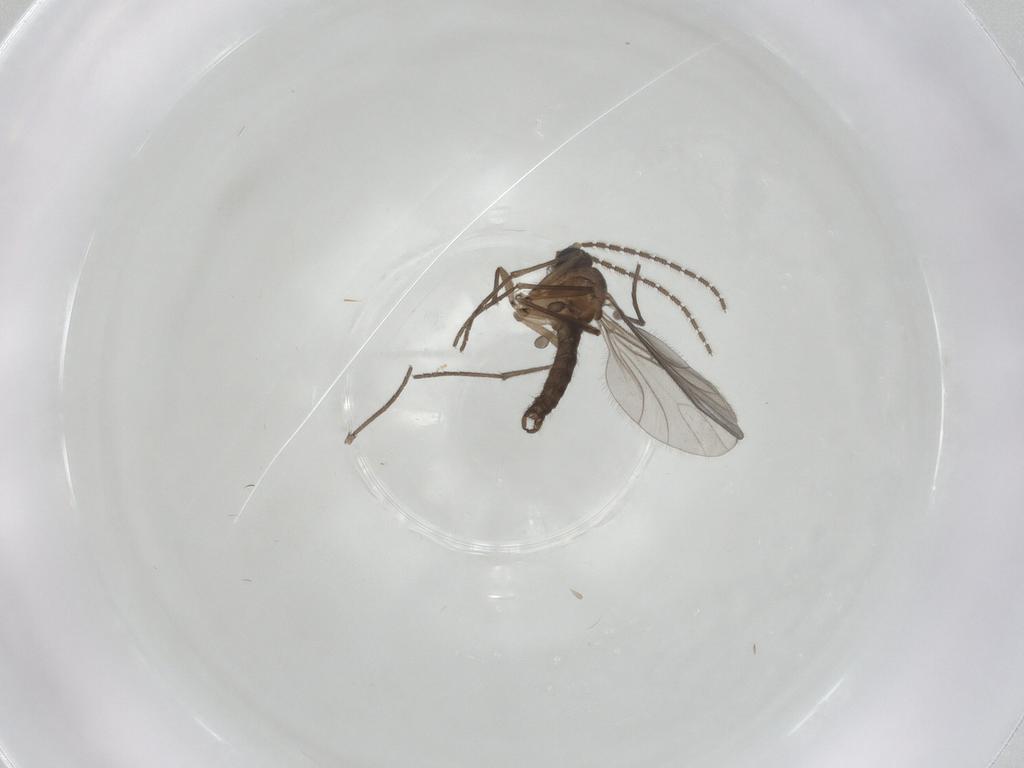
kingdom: Animalia
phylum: Arthropoda
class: Insecta
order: Diptera
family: Sciaridae
